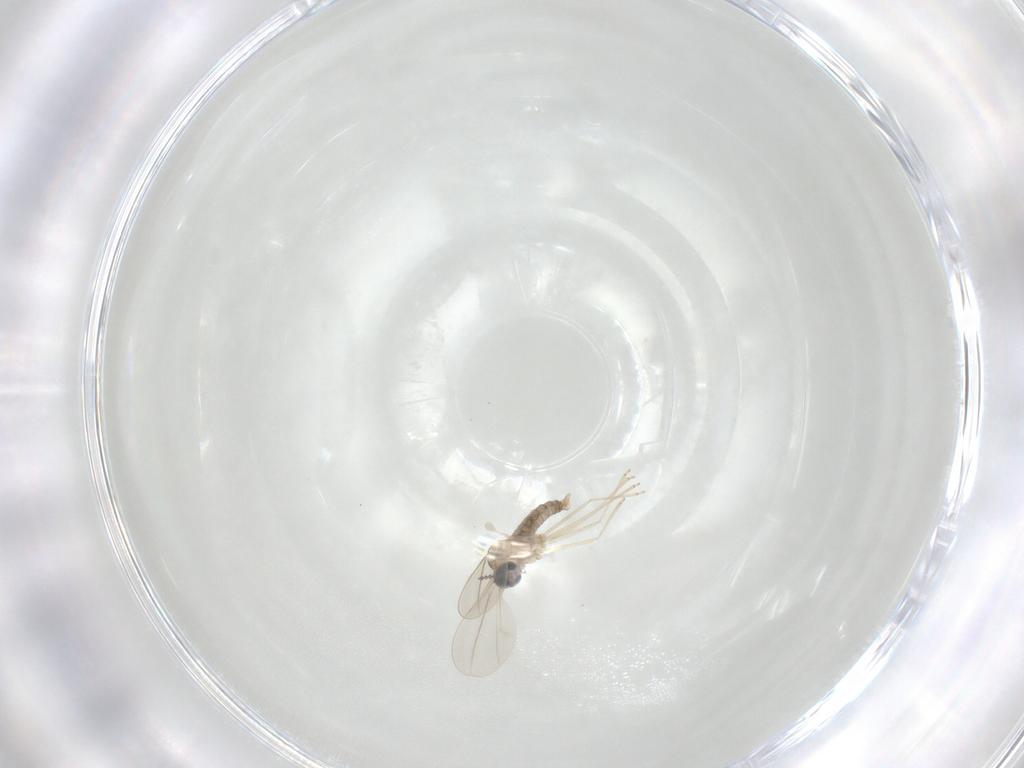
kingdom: Animalia
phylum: Arthropoda
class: Insecta
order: Diptera
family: Cecidomyiidae
